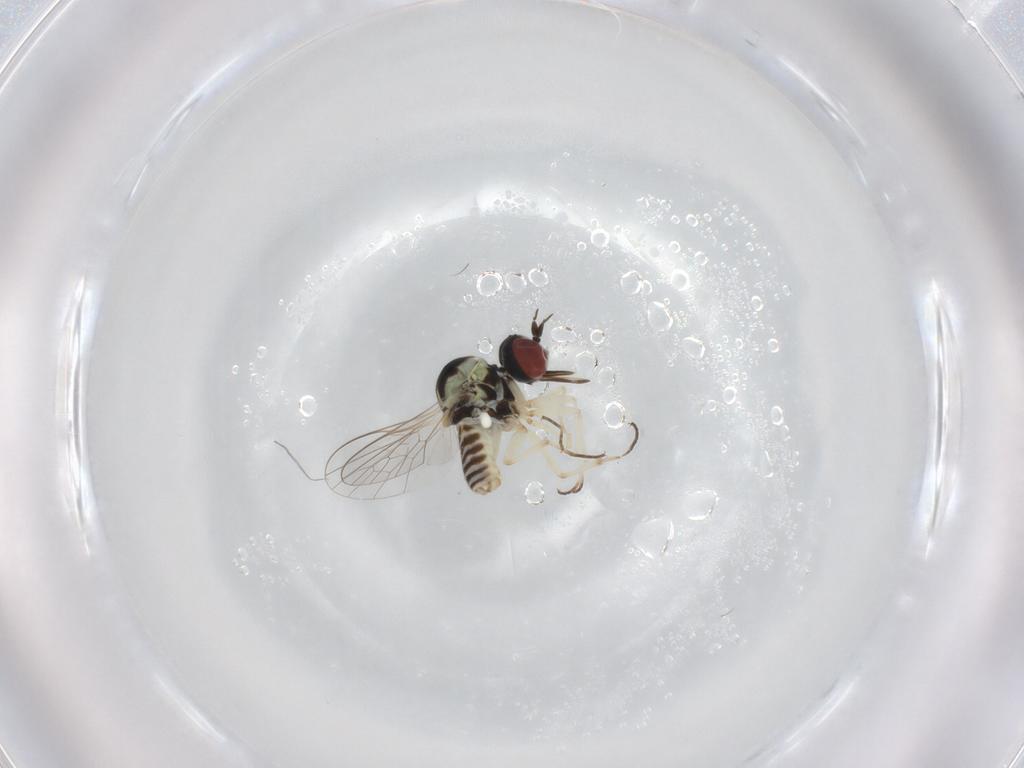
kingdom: Animalia
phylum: Arthropoda
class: Insecta
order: Diptera
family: Bombyliidae
